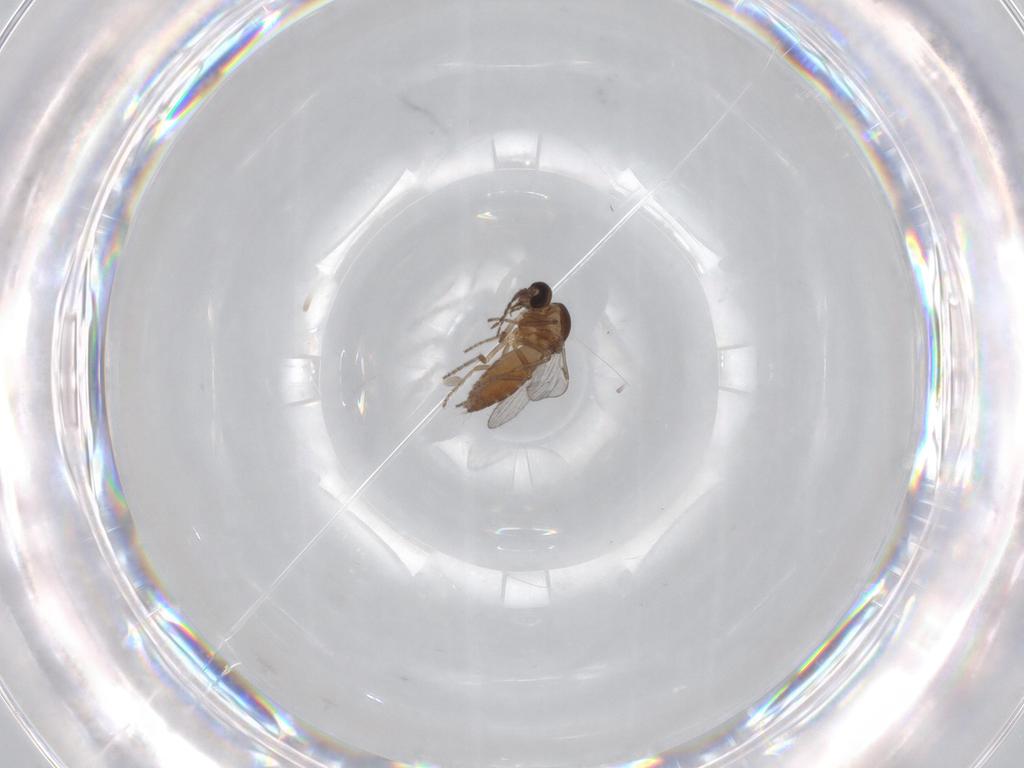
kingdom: Animalia
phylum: Arthropoda
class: Insecta
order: Diptera
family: Ceratopogonidae
